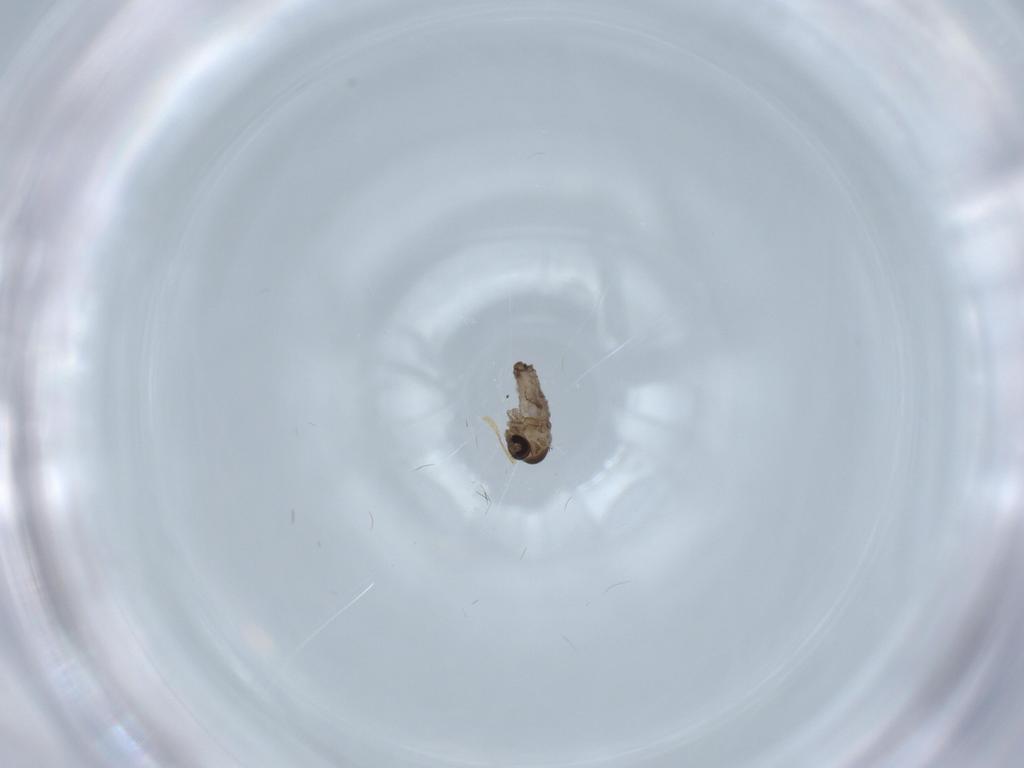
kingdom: Animalia
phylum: Arthropoda
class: Insecta
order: Diptera
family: Psychodidae
